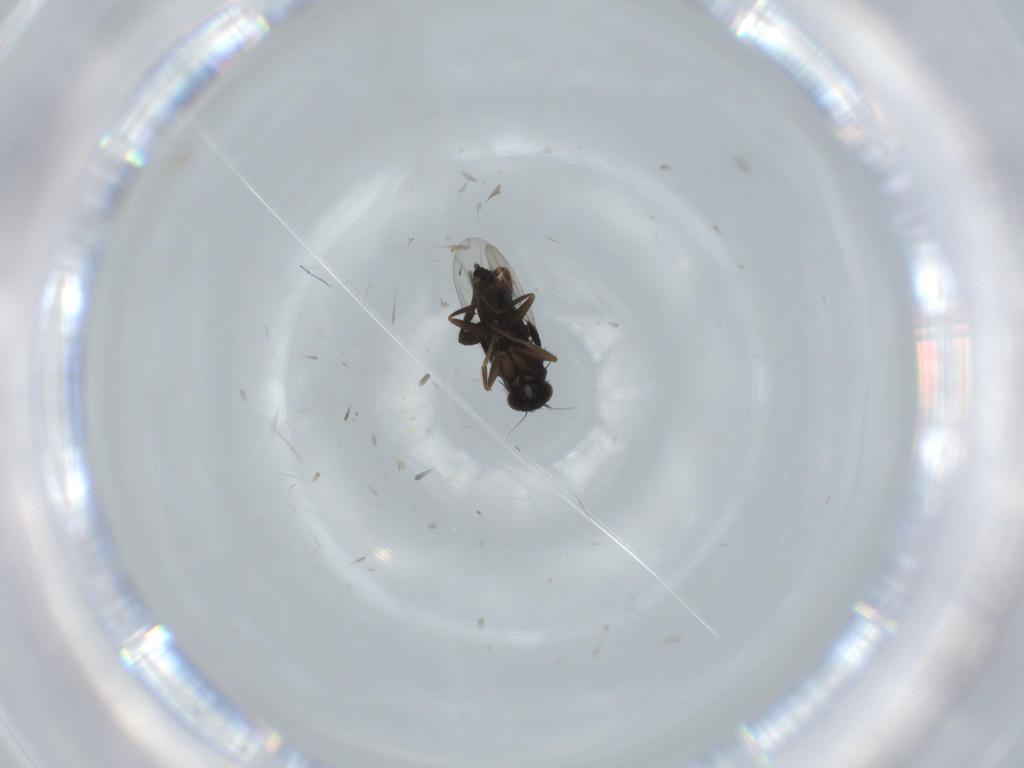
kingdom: Animalia
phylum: Arthropoda
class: Insecta
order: Diptera
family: Phoridae
